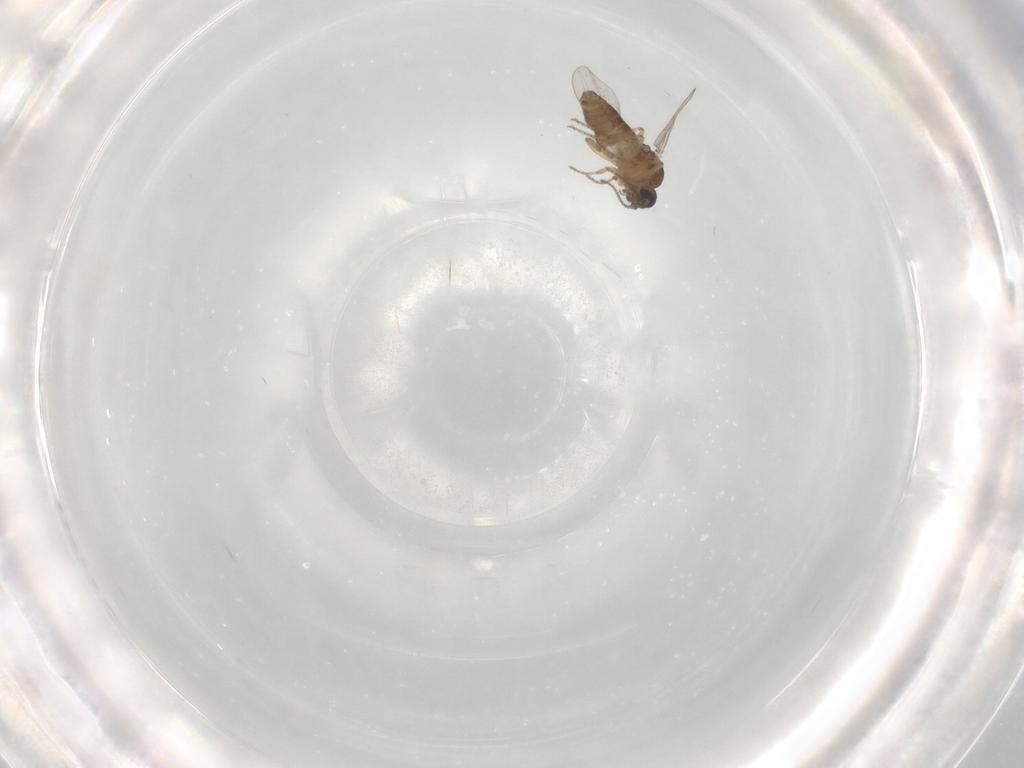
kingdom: Animalia
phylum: Arthropoda
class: Insecta
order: Diptera
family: Ceratopogonidae
